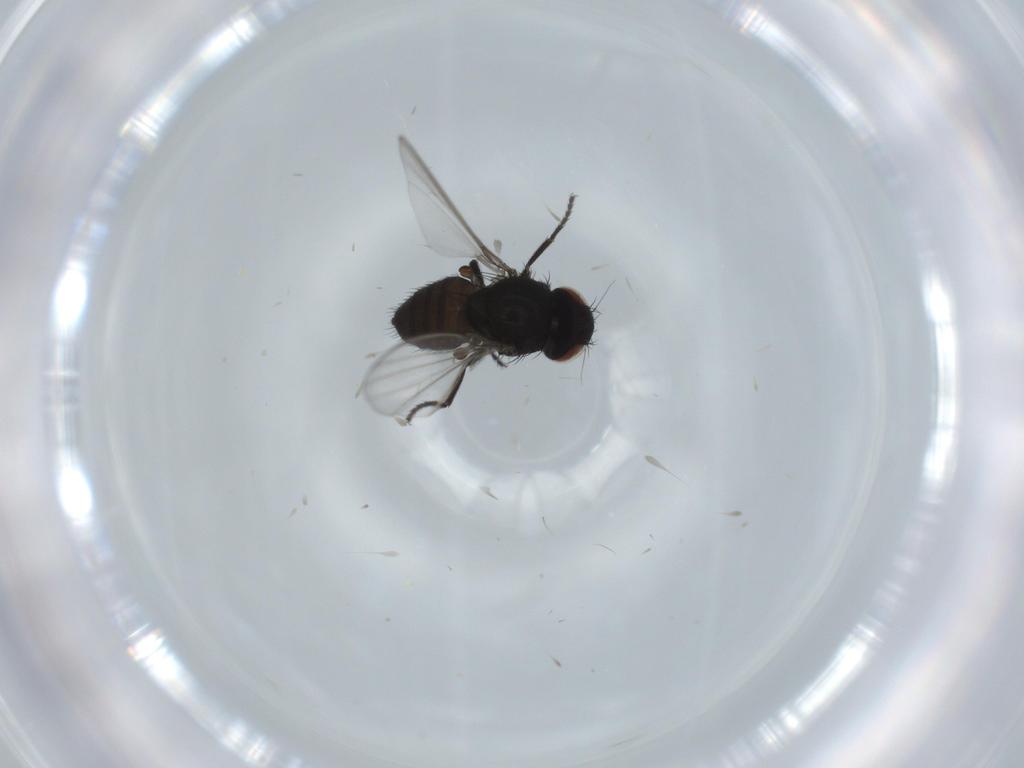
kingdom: Animalia
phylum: Arthropoda
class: Insecta
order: Diptera
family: Milichiidae
